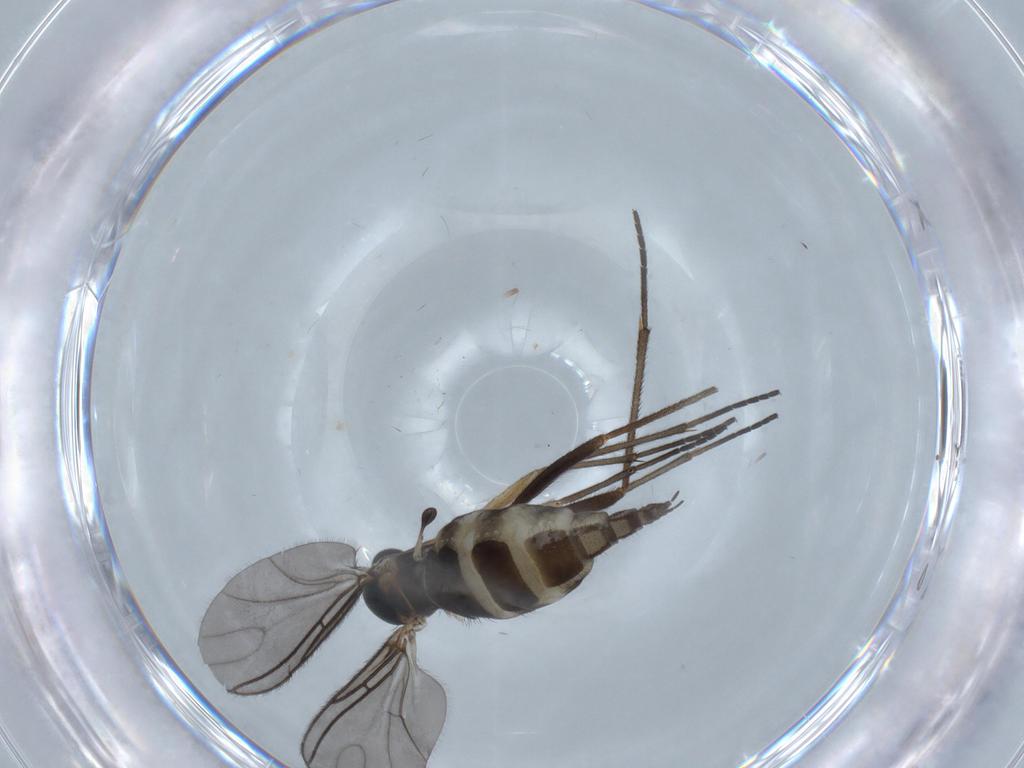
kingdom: Animalia
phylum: Arthropoda
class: Insecta
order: Diptera
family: Sciaridae
